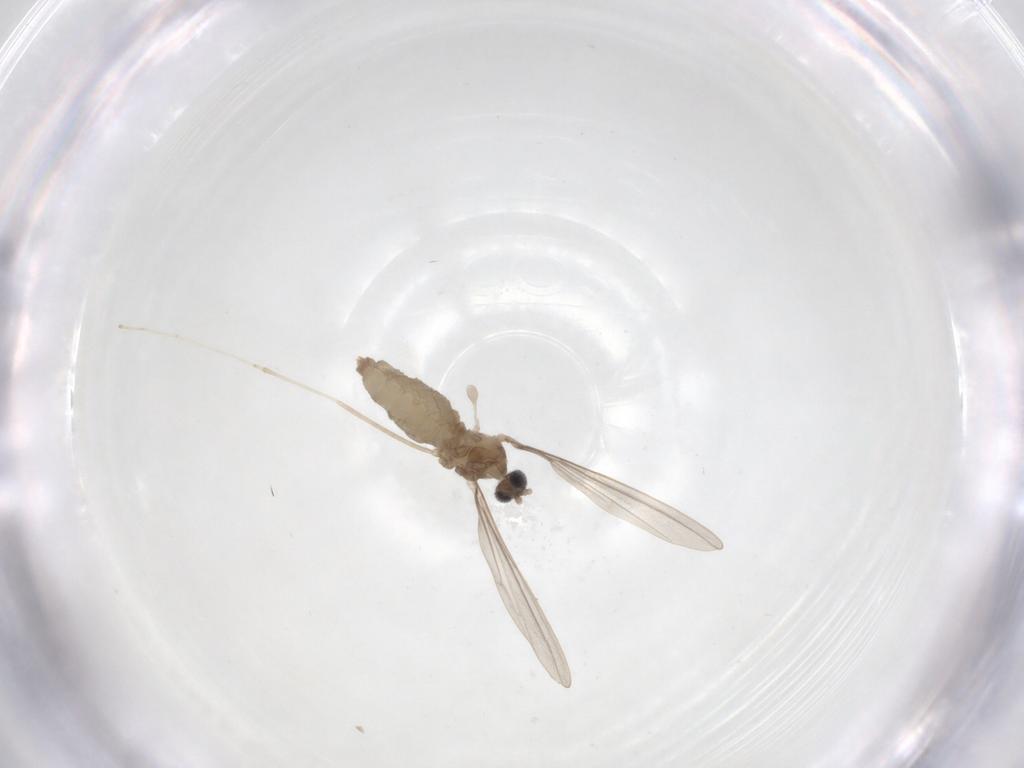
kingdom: Animalia
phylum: Arthropoda
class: Insecta
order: Diptera
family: Cecidomyiidae
